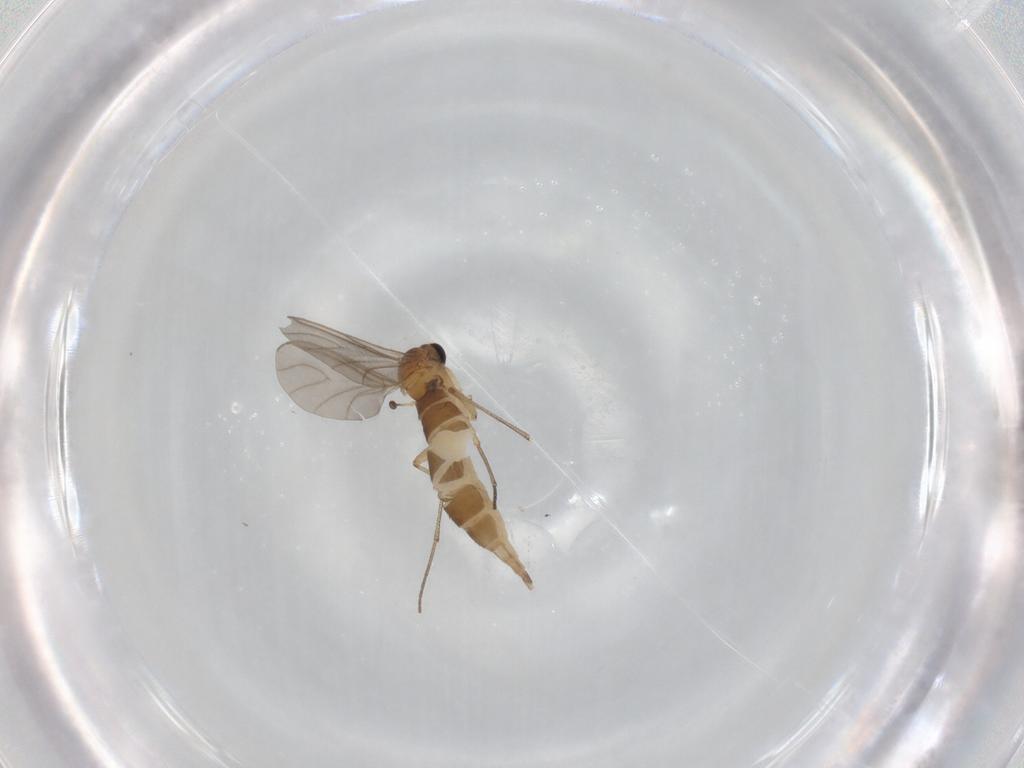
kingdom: Animalia
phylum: Arthropoda
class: Insecta
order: Diptera
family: Sciaridae
